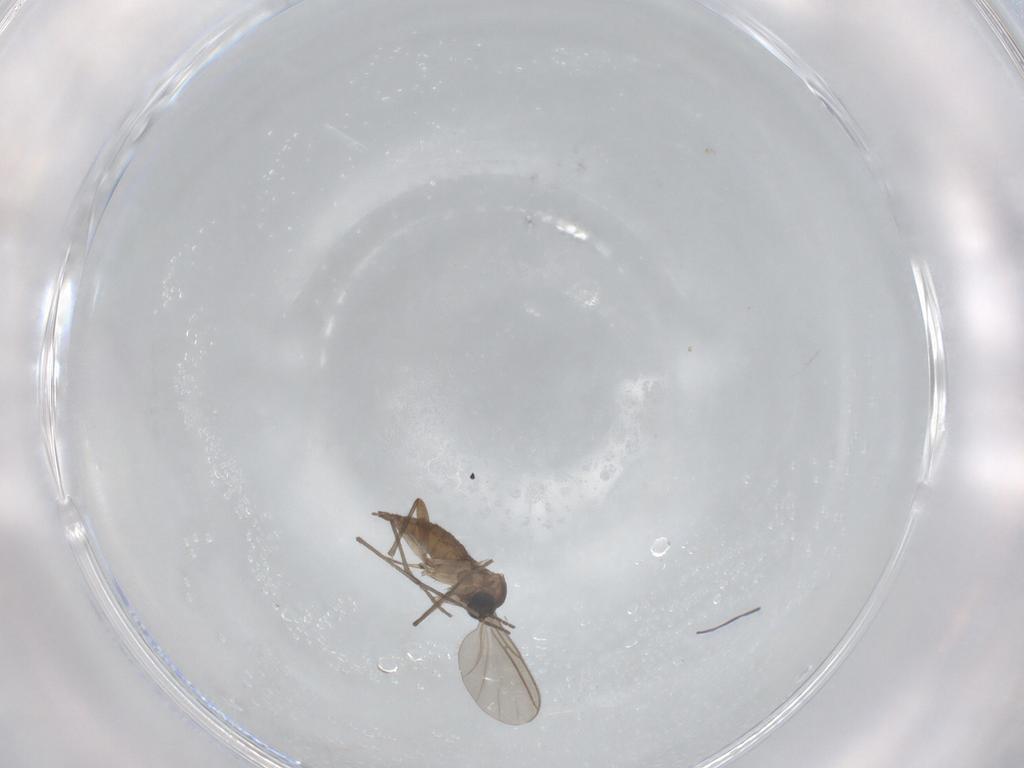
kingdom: Animalia
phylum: Arthropoda
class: Insecta
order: Diptera
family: Sciaridae
